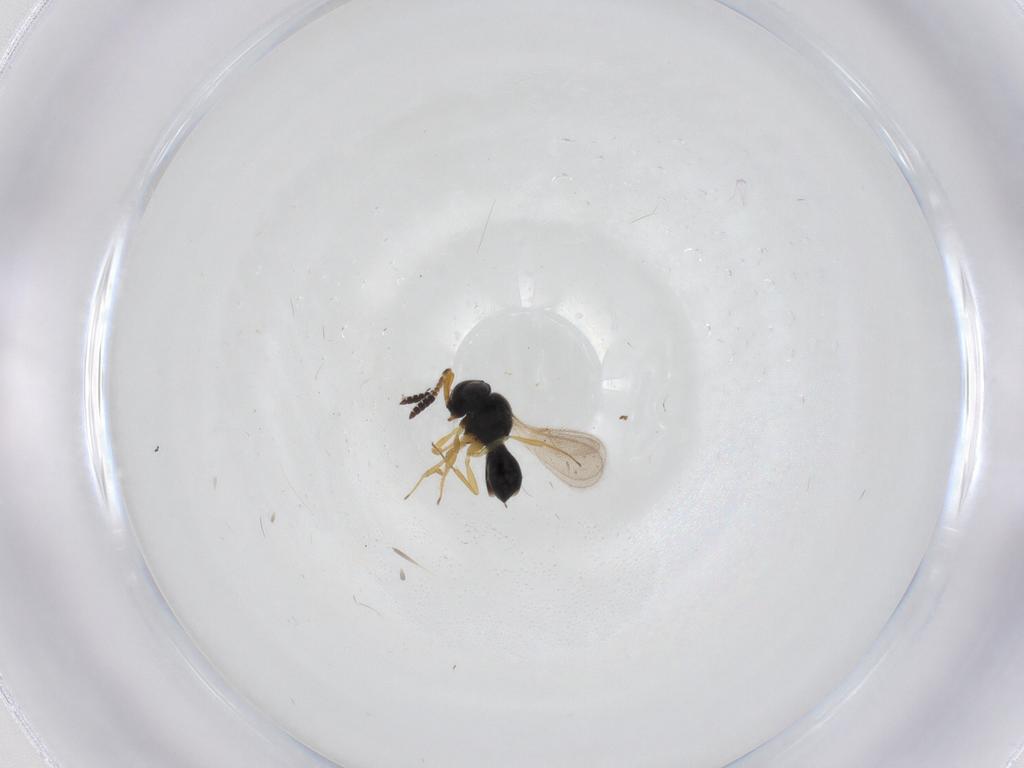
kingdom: Animalia
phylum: Arthropoda
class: Insecta
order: Hymenoptera
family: Scelionidae
